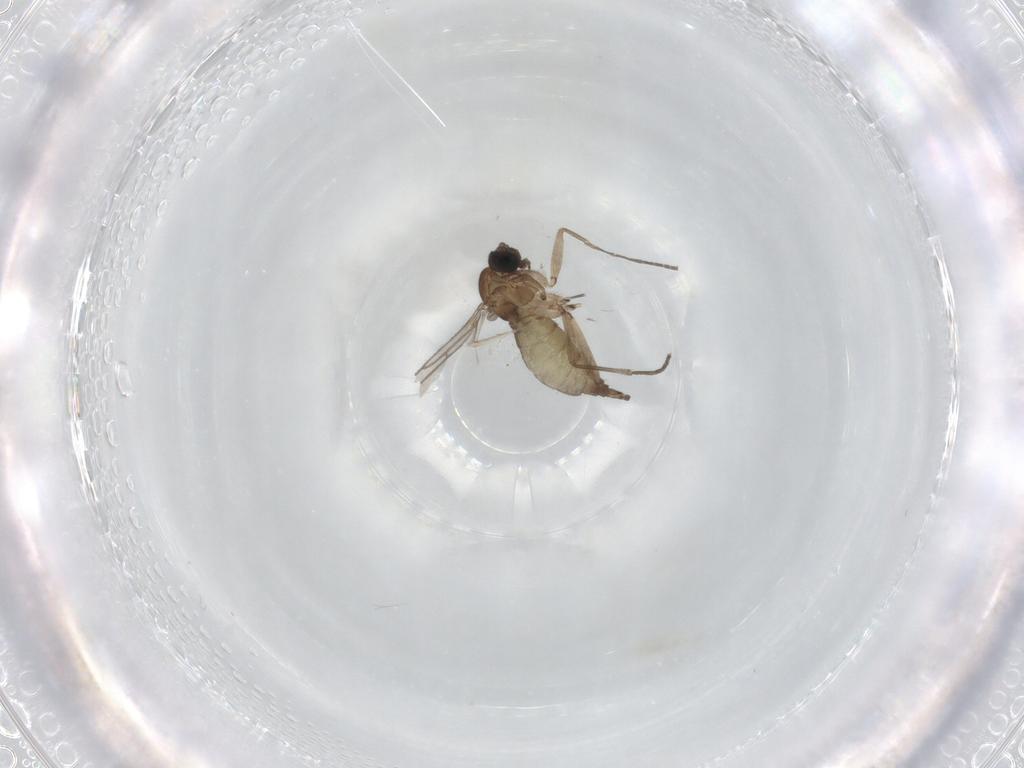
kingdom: Animalia
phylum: Arthropoda
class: Insecta
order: Diptera
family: Sciaridae
